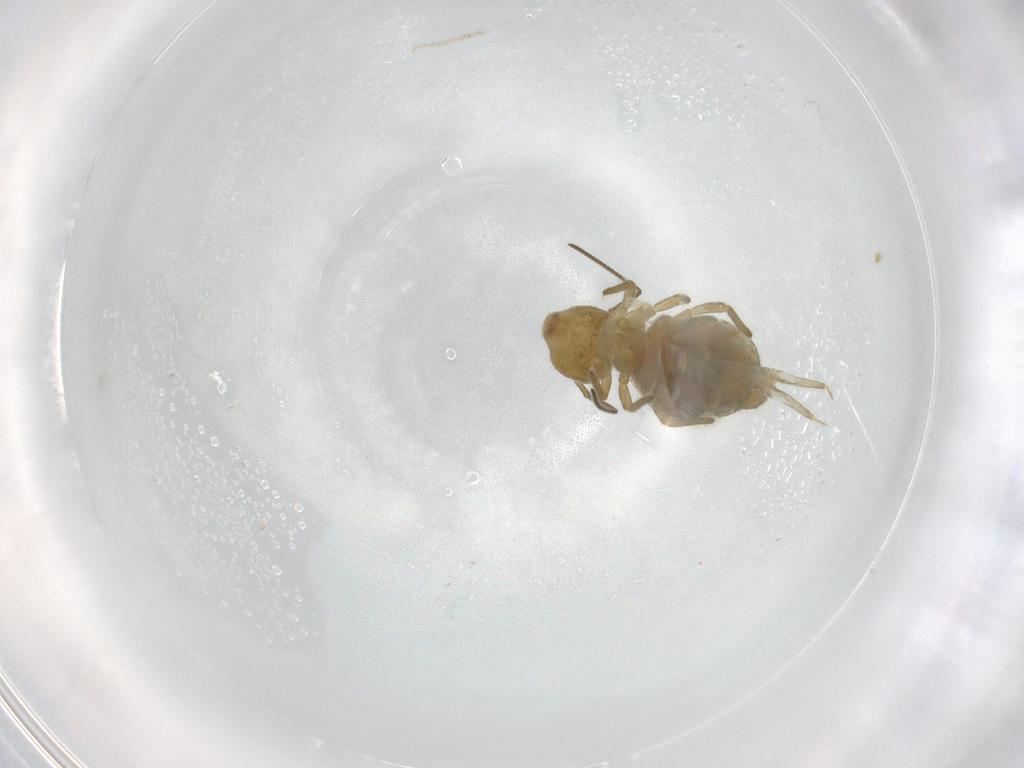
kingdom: Animalia
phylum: Arthropoda
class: Collembola
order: Symphypleona
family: Sminthuridae
